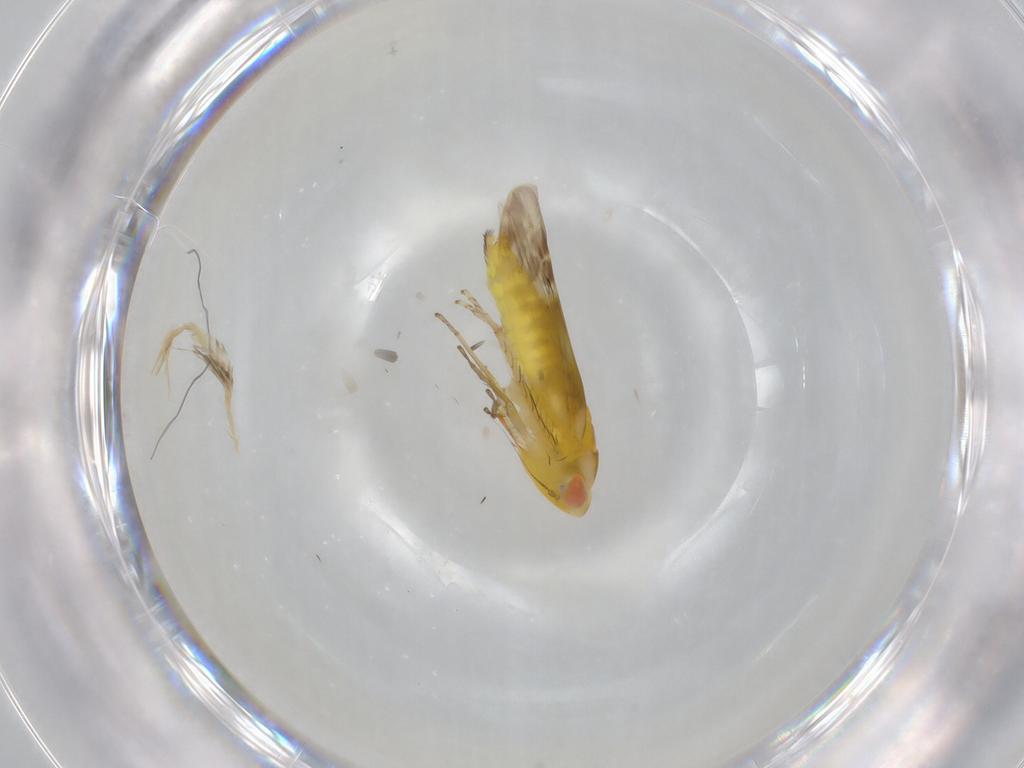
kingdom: Animalia
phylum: Arthropoda
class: Insecta
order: Hemiptera
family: Cicadellidae
